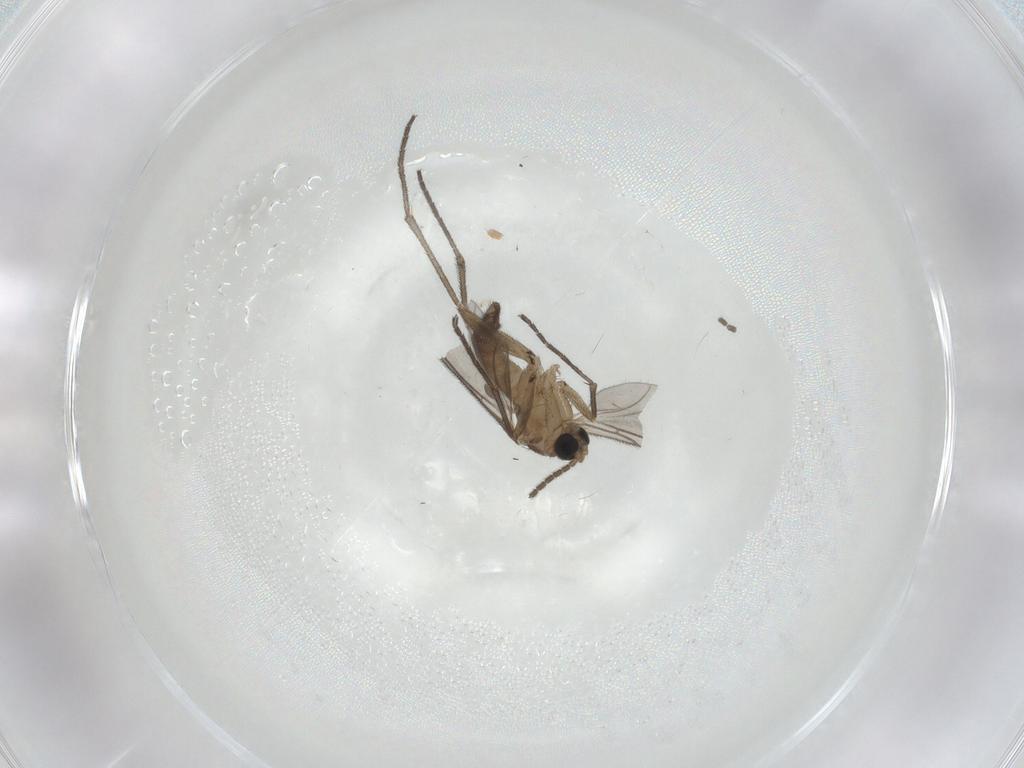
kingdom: Animalia
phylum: Arthropoda
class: Insecta
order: Diptera
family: Sciaridae
